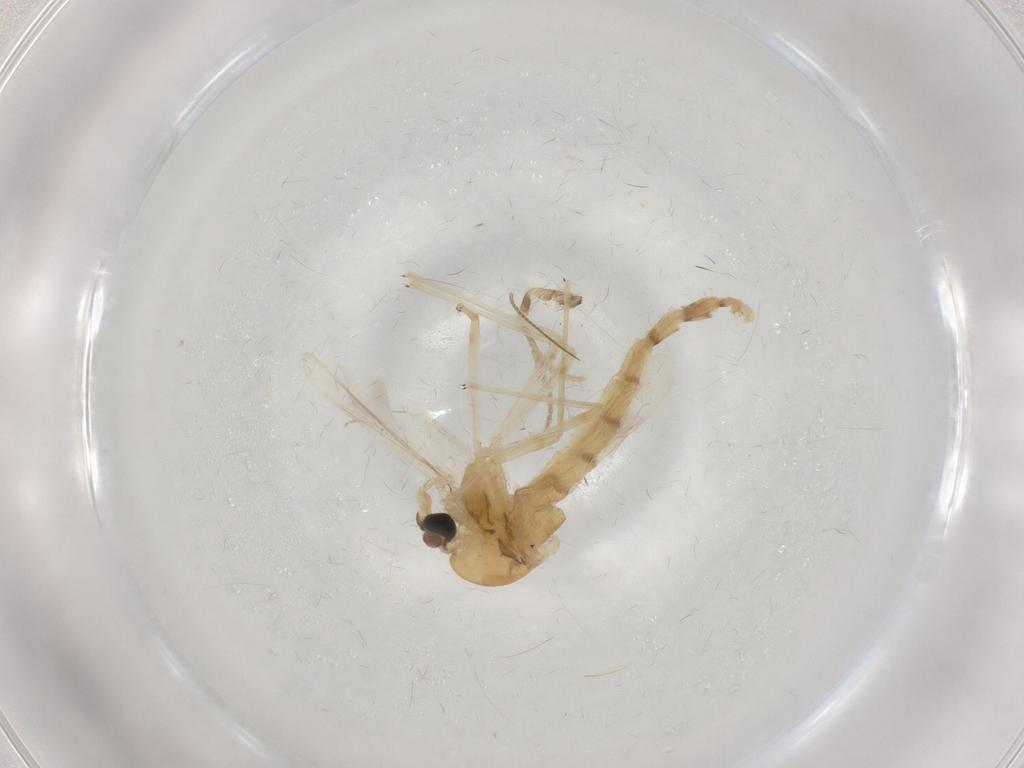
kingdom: Animalia
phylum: Arthropoda
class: Insecta
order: Diptera
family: Chironomidae
